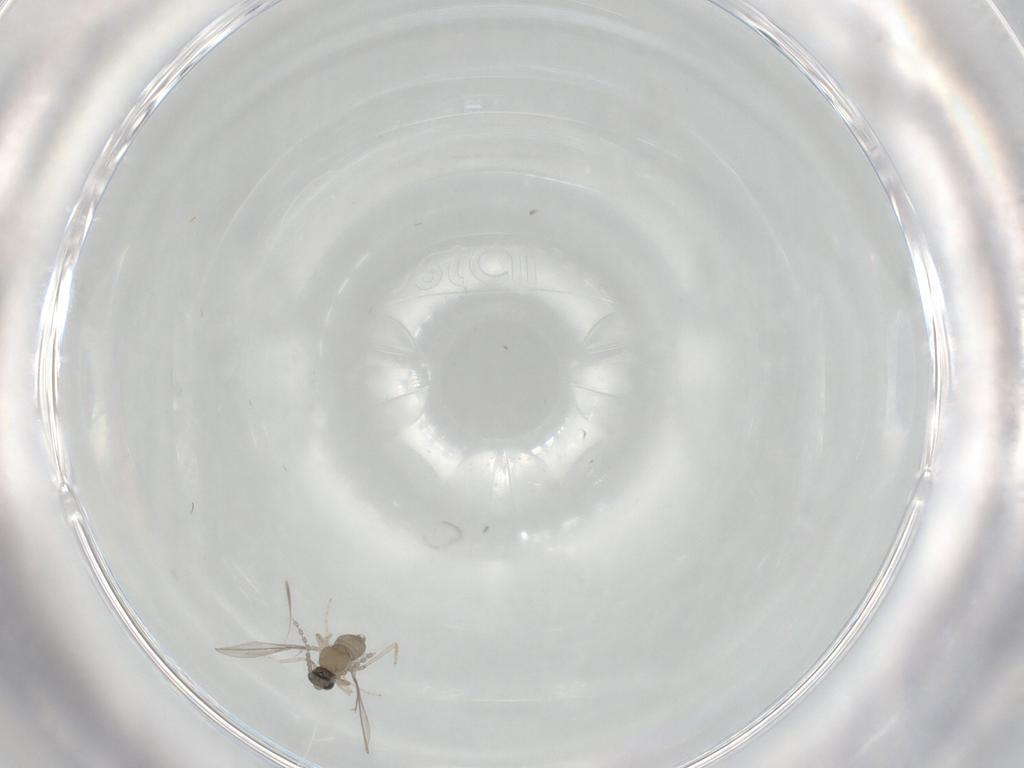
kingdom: Animalia
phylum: Arthropoda
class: Insecta
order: Diptera
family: Cecidomyiidae
